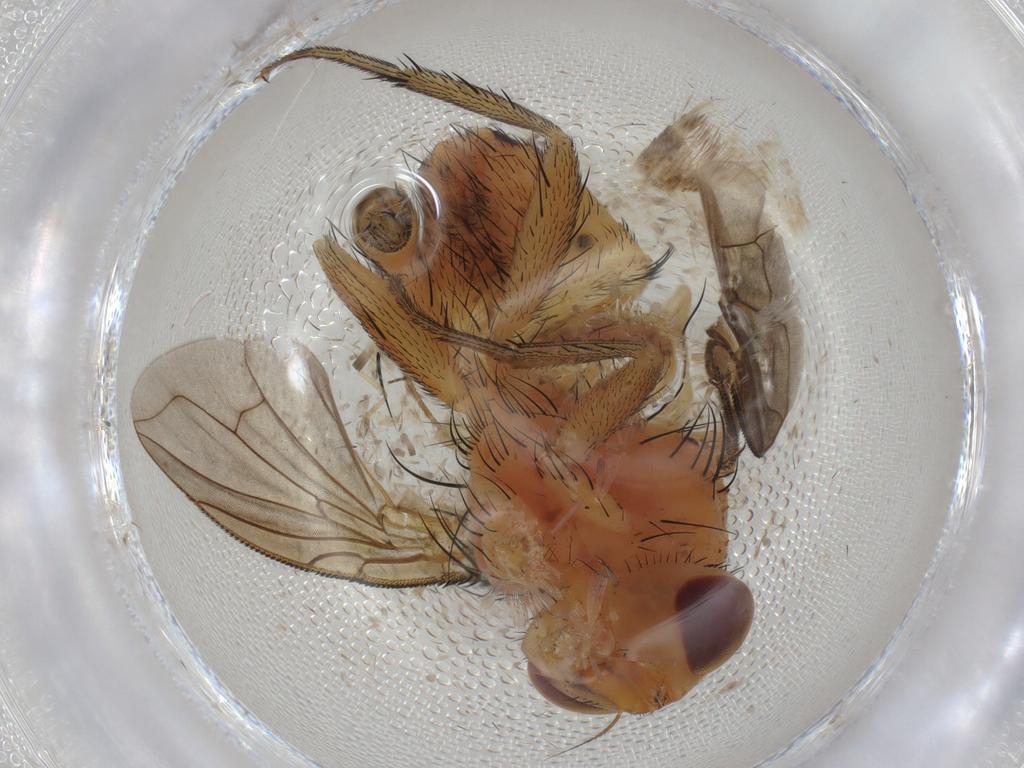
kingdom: Animalia
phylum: Arthropoda
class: Insecta
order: Diptera
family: Calliphoridae
